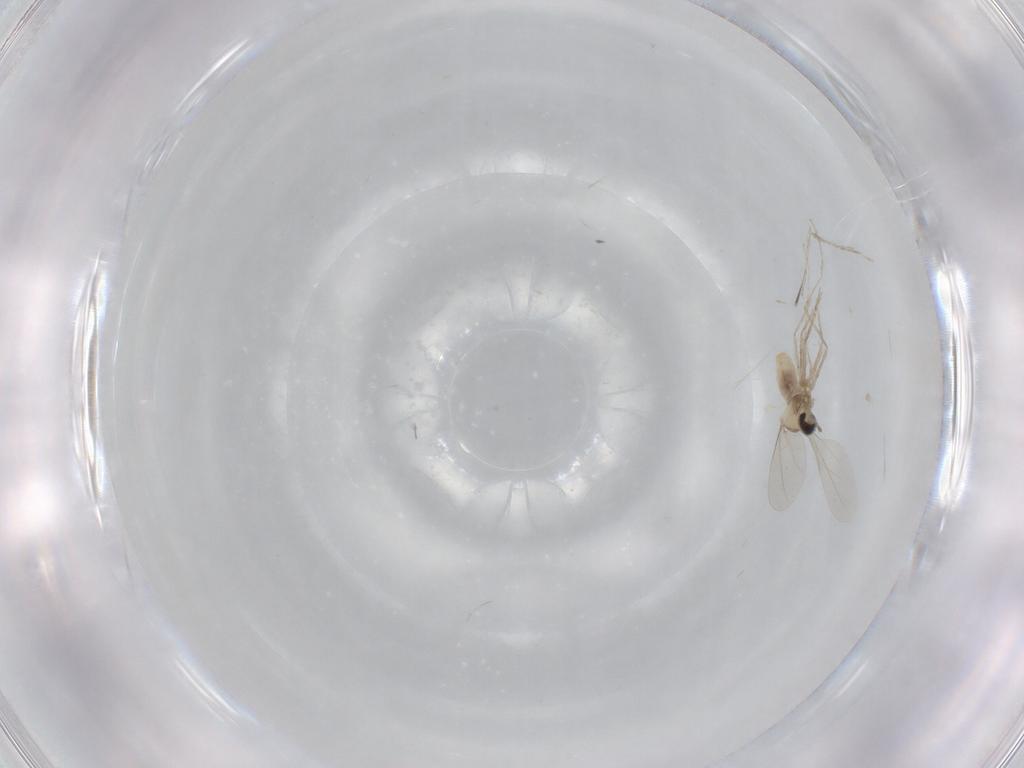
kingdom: Animalia
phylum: Arthropoda
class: Insecta
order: Diptera
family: Cecidomyiidae
